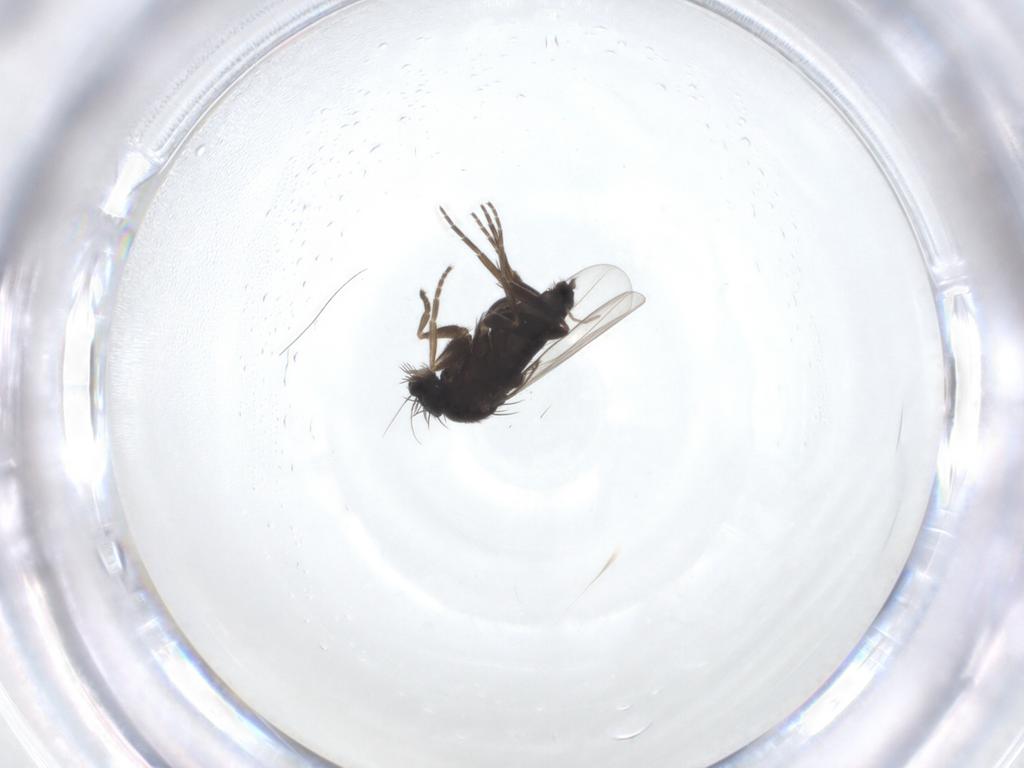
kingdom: Animalia
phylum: Arthropoda
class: Insecta
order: Diptera
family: Phoridae
